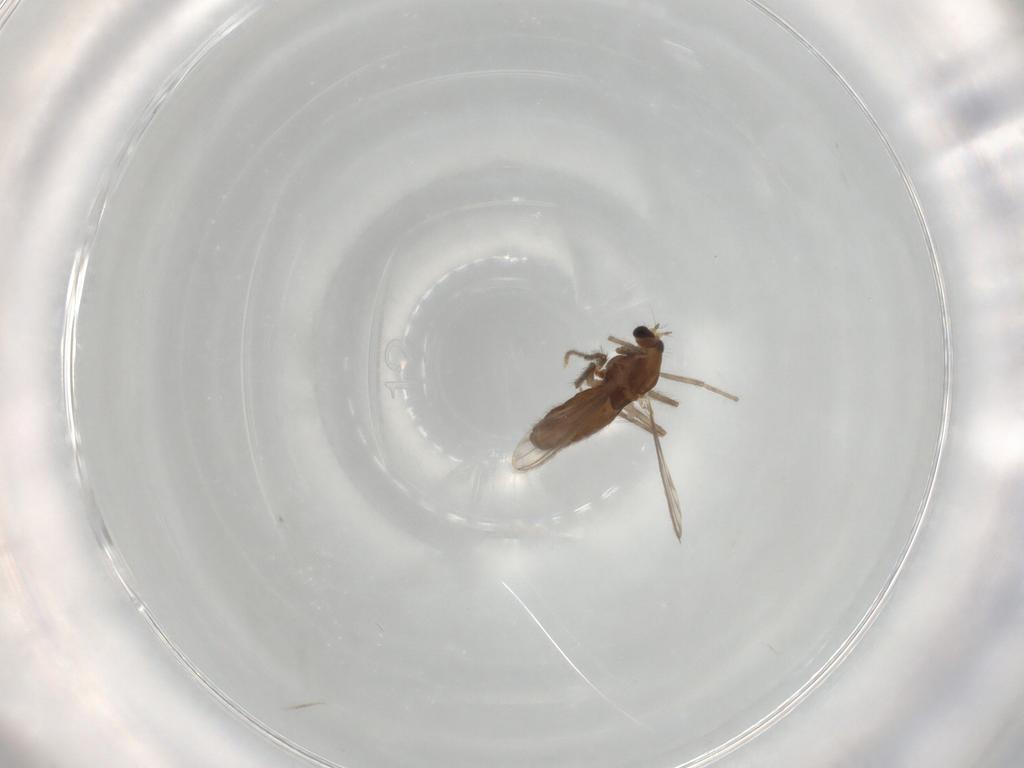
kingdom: Animalia
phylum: Arthropoda
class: Insecta
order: Diptera
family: Chironomidae
